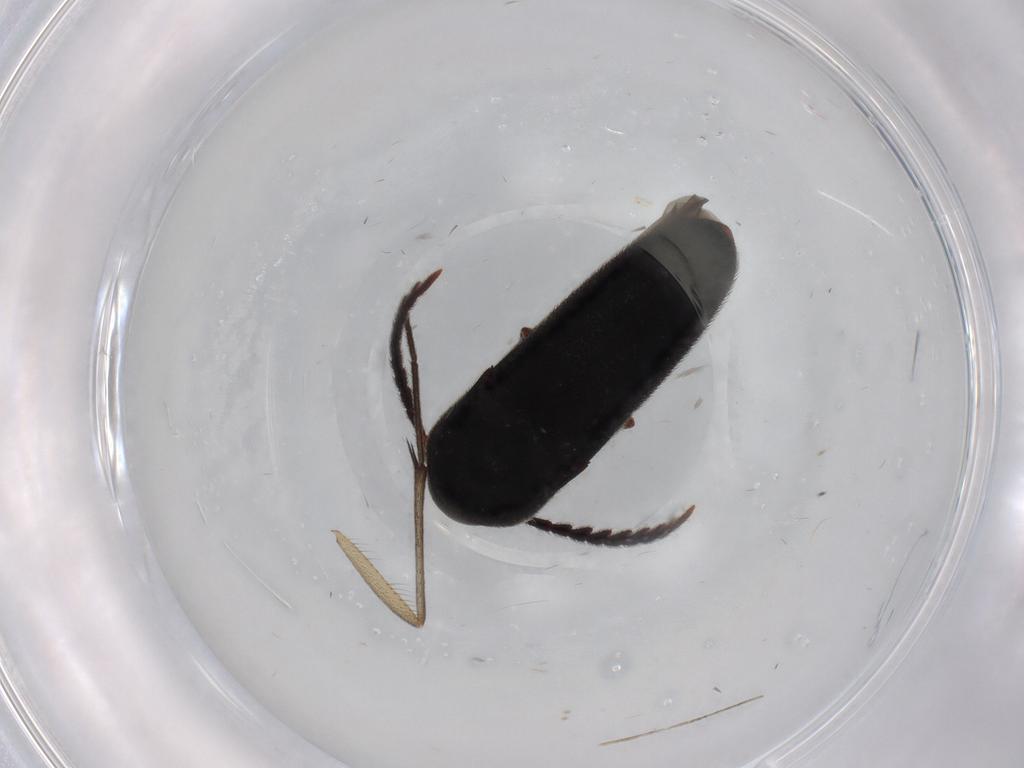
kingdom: Animalia
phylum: Arthropoda
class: Insecta
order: Coleoptera
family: Eucnemidae
